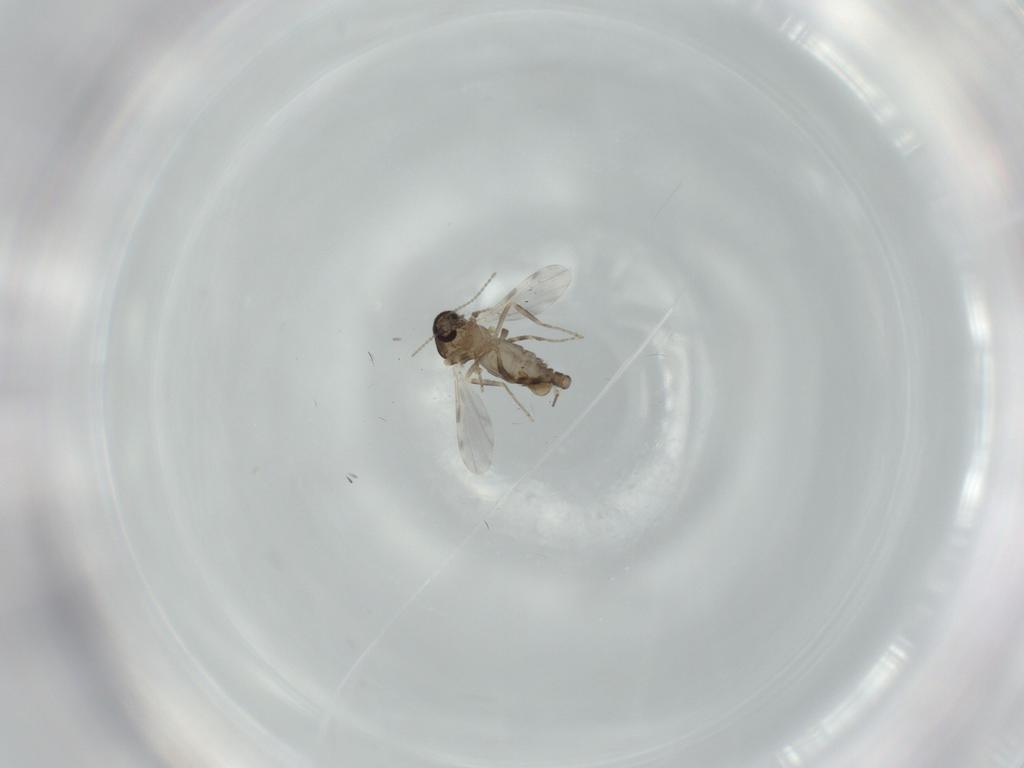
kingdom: Animalia
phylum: Arthropoda
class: Insecta
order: Diptera
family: Ceratopogonidae
